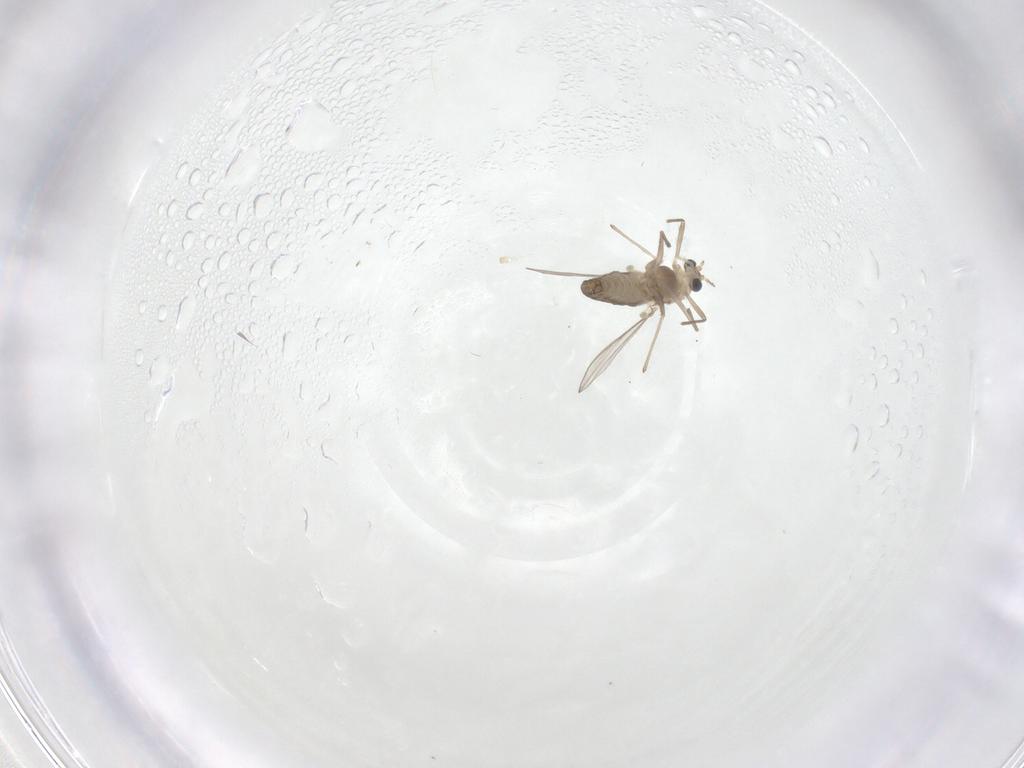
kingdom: Animalia
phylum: Arthropoda
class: Insecta
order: Diptera
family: Chironomidae
